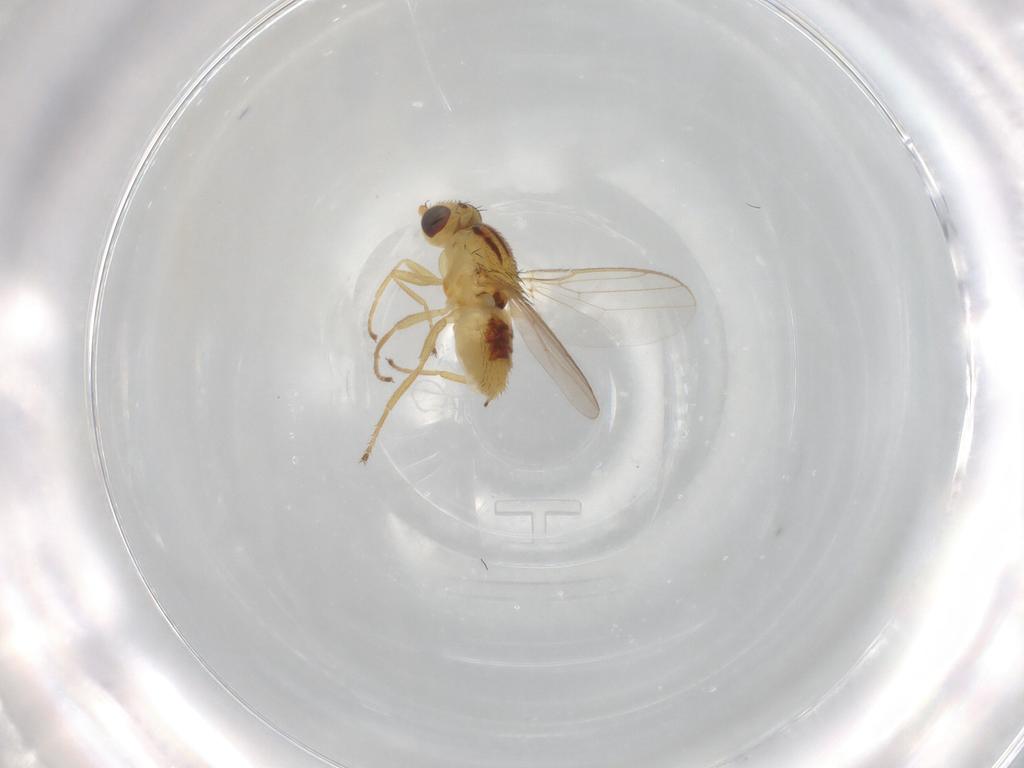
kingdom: Animalia
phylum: Arthropoda
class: Insecta
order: Diptera
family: Chloropidae
